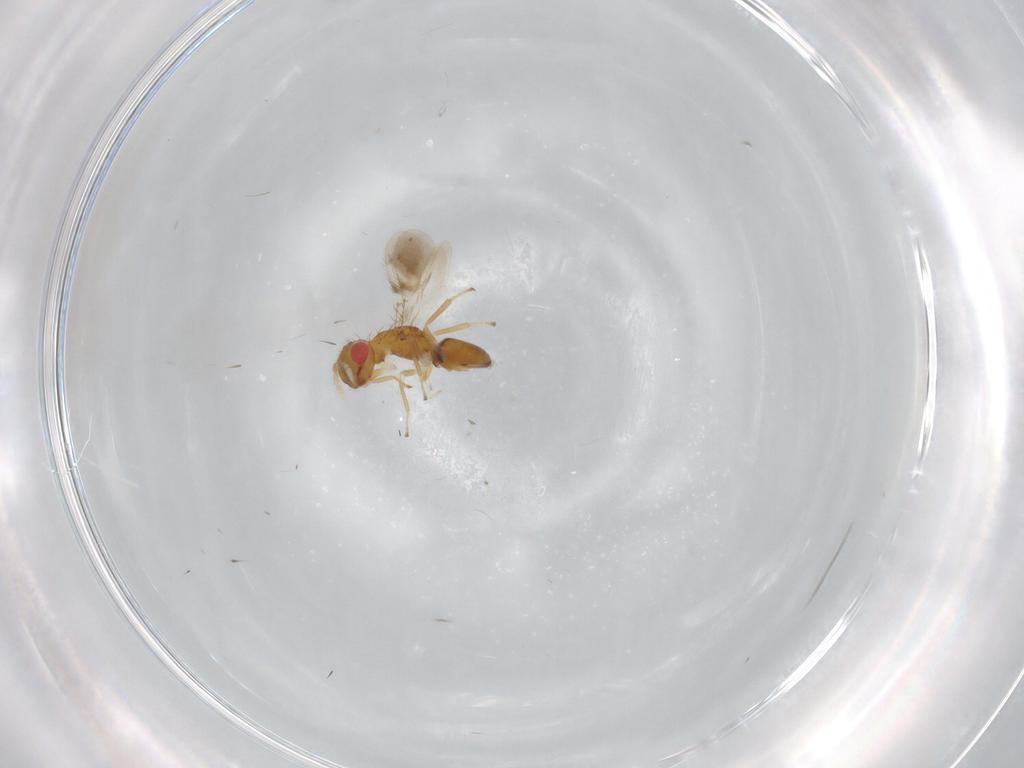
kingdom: Animalia
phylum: Arthropoda
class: Insecta
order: Hymenoptera
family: Eulophidae
